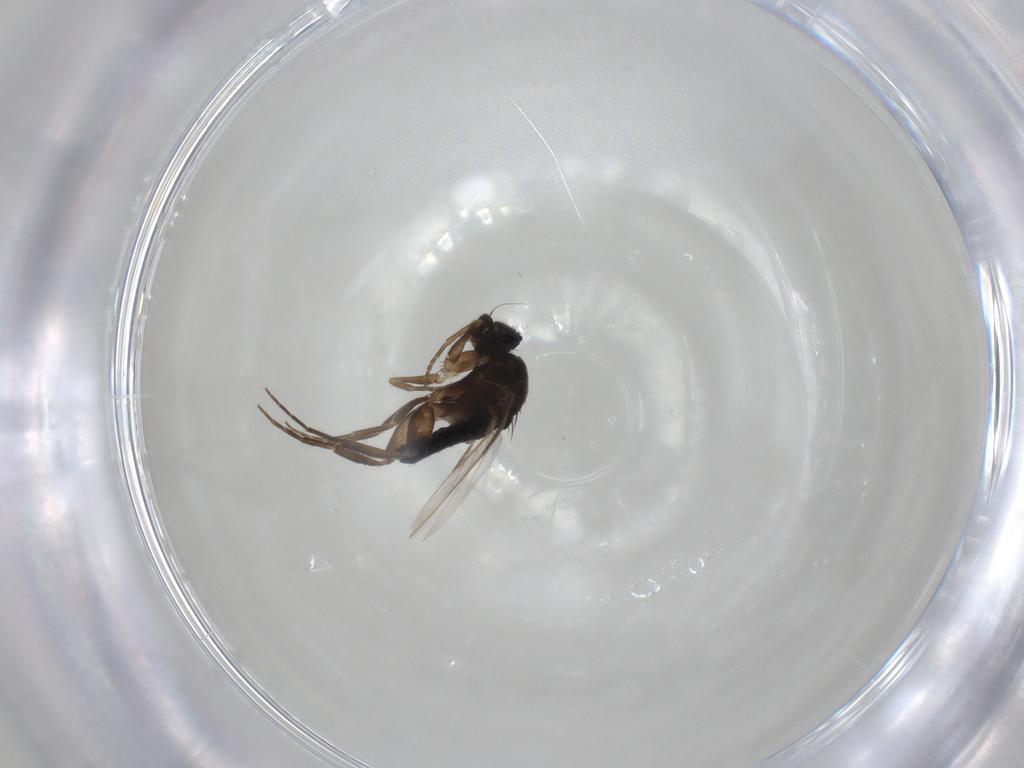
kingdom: Animalia
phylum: Arthropoda
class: Insecta
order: Diptera
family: Phoridae
